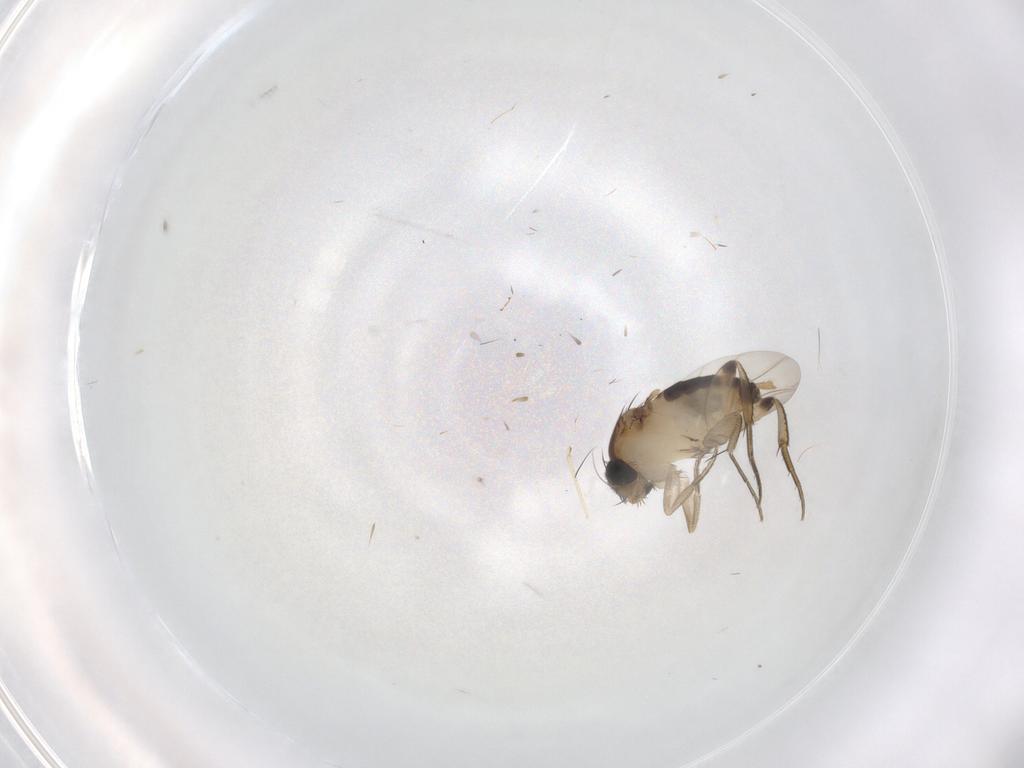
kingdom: Animalia
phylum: Arthropoda
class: Insecta
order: Diptera
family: Phoridae
